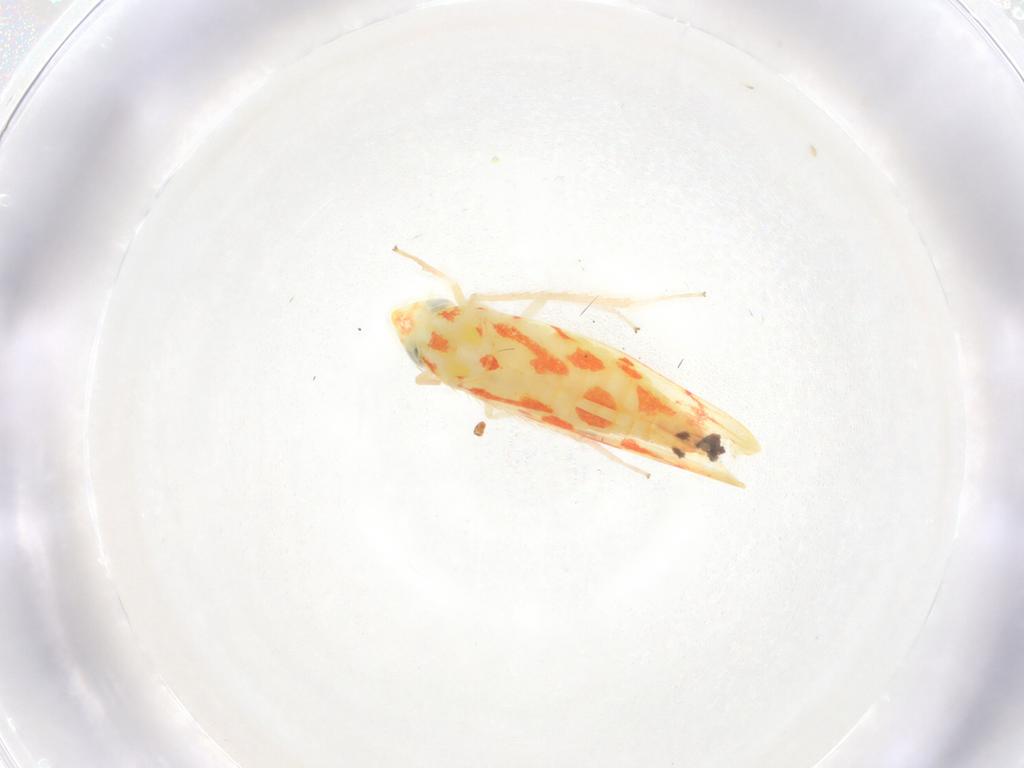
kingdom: Animalia
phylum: Arthropoda
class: Insecta
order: Hemiptera
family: Cicadellidae
